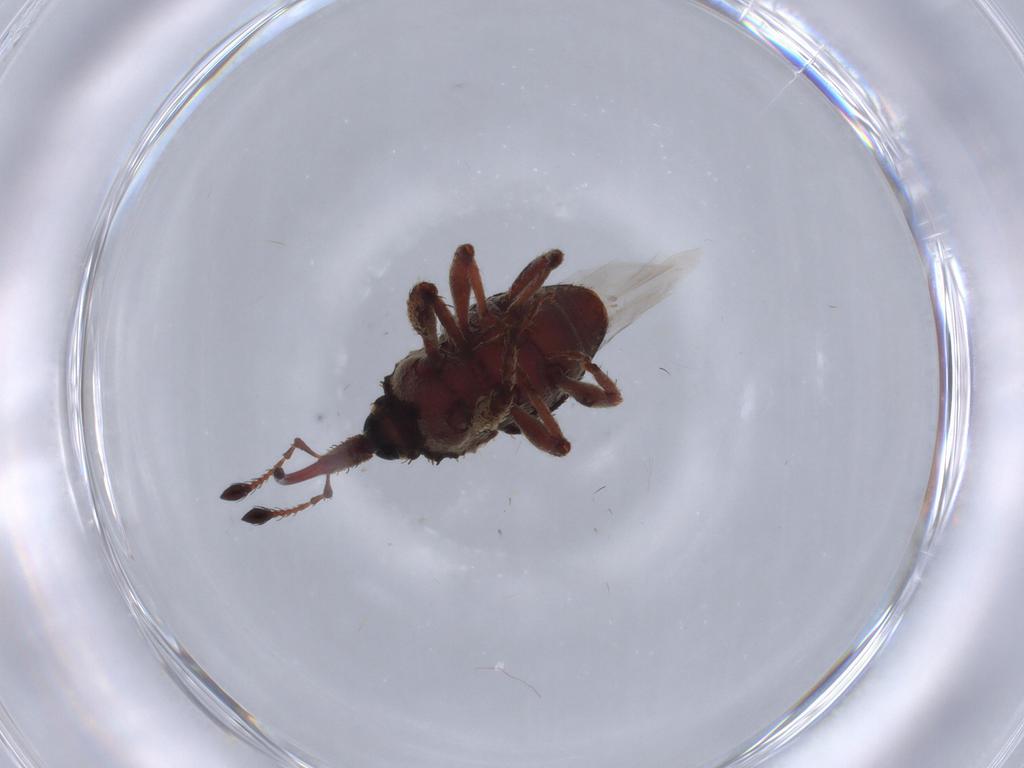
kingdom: Animalia
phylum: Arthropoda
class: Insecta
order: Coleoptera
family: Curculionidae
